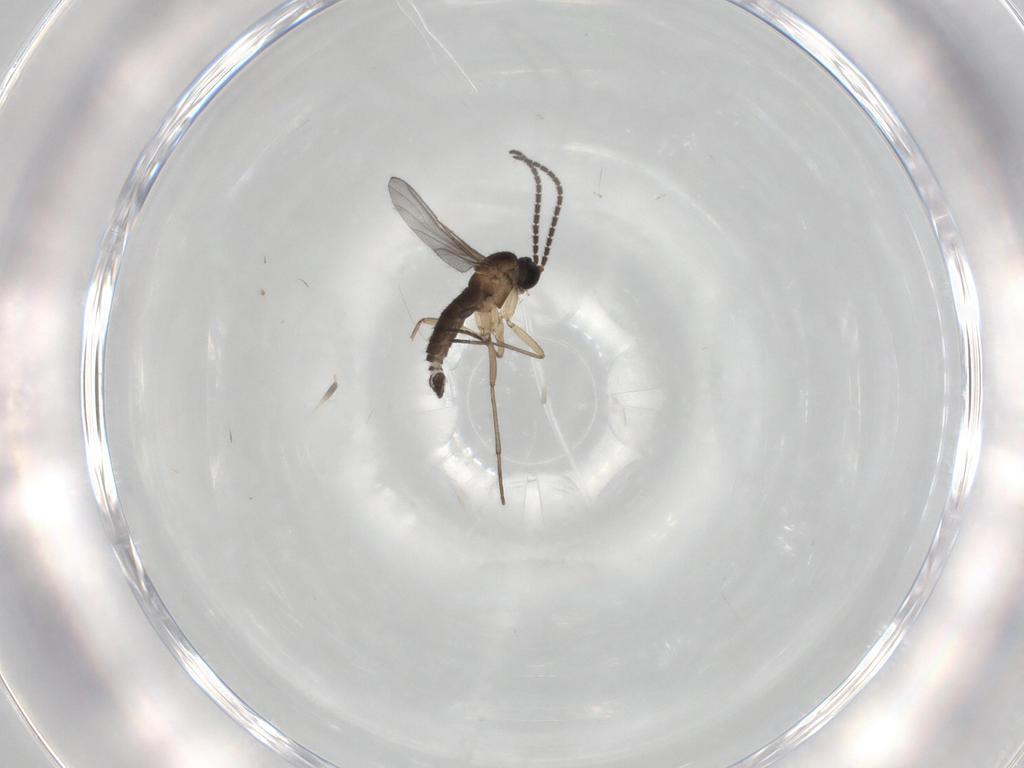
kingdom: Animalia
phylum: Arthropoda
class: Insecta
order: Diptera
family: Sciaridae
